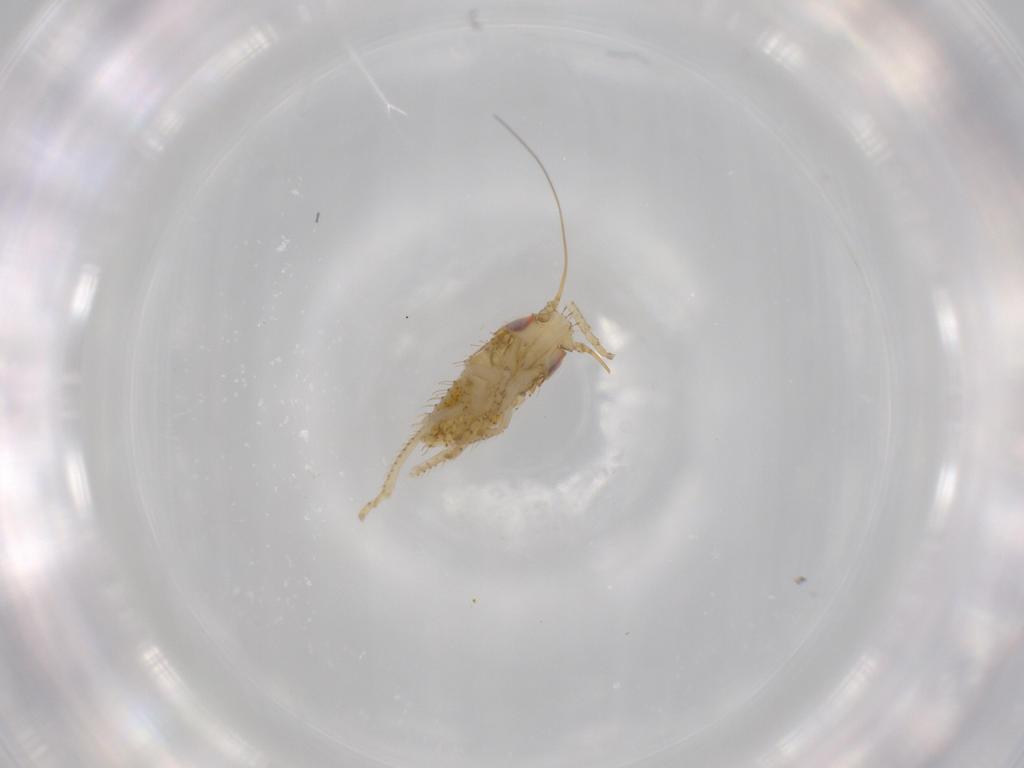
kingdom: Animalia
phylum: Arthropoda
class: Insecta
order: Hemiptera
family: Cicadellidae
